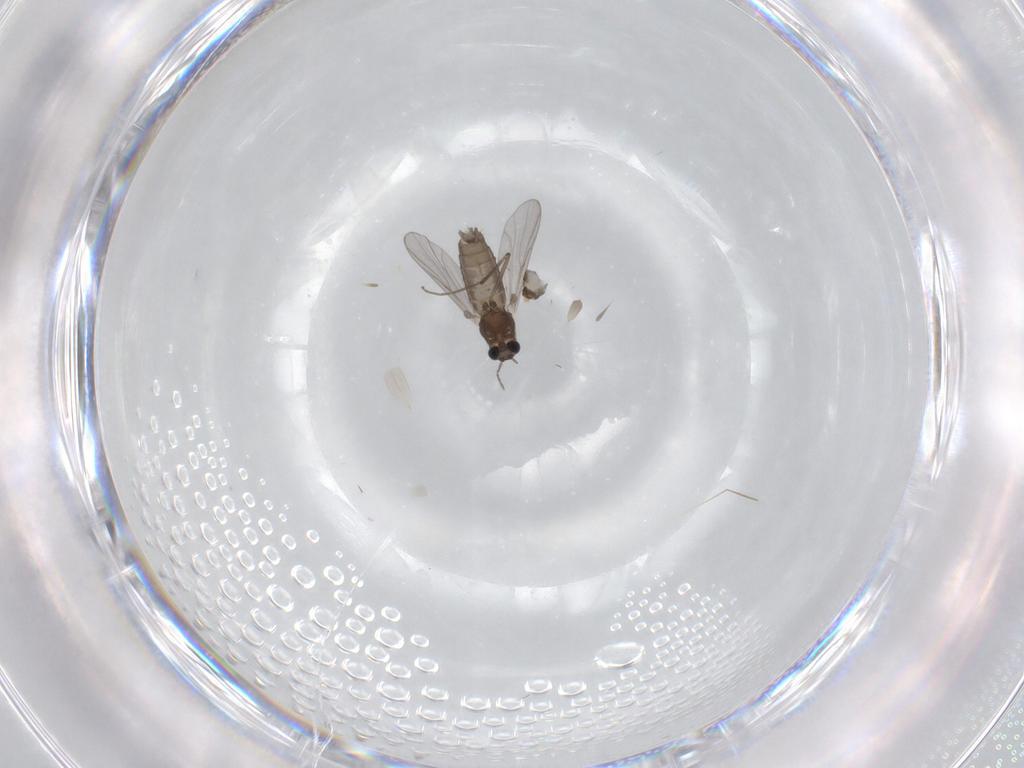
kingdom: Animalia
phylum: Arthropoda
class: Insecta
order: Diptera
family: Chironomidae
